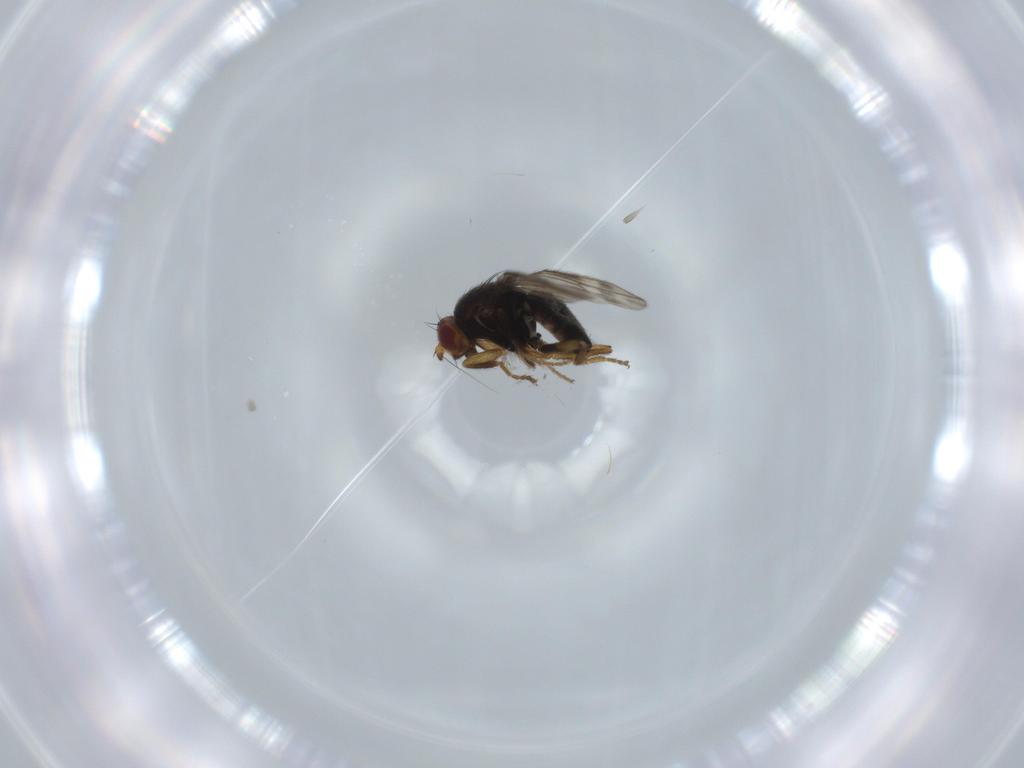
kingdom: Animalia
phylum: Arthropoda
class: Insecta
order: Diptera
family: Sphaeroceridae
